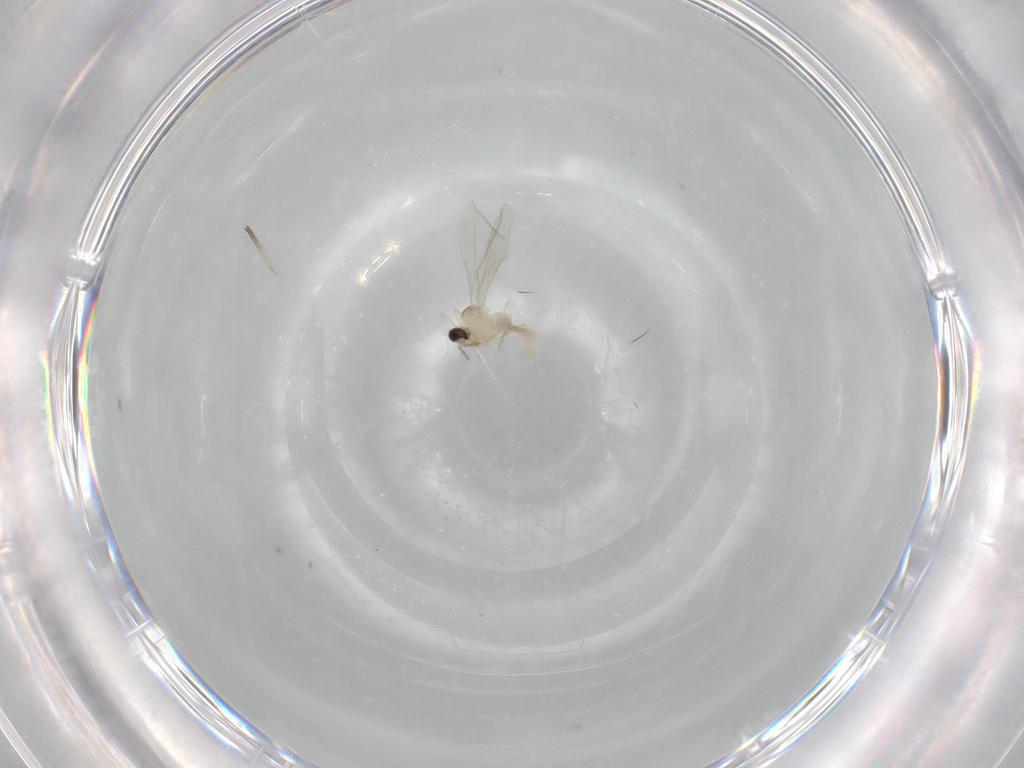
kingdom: Animalia
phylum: Arthropoda
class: Insecta
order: Diptera
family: Cecidomyiidae
